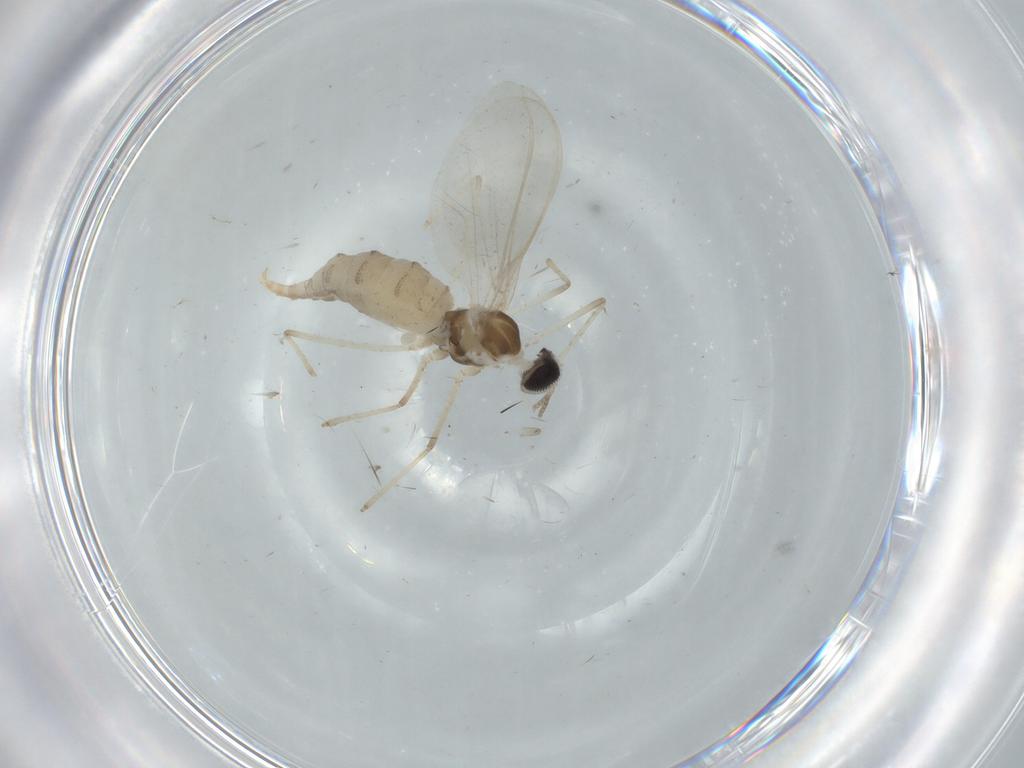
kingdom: Animalia
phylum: Arthropoda
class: Insecta
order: Diptera
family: Cecidomyiidae
